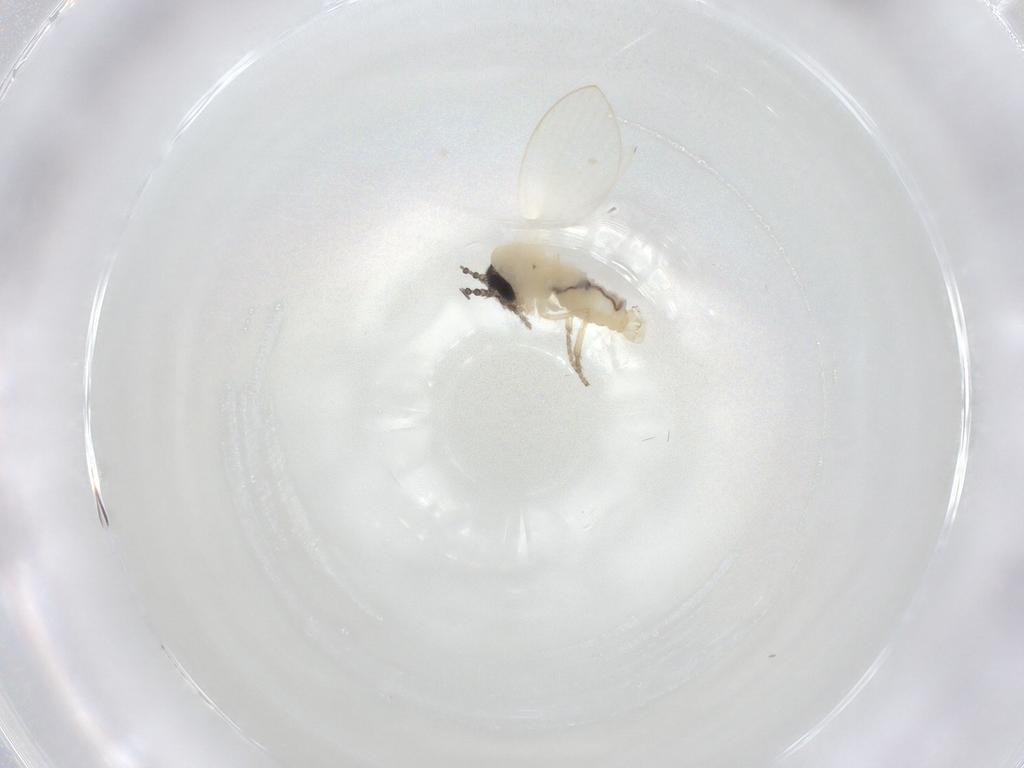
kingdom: Animalia
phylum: Arthropoda
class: Insecta
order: Diptera
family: Psychodidae
